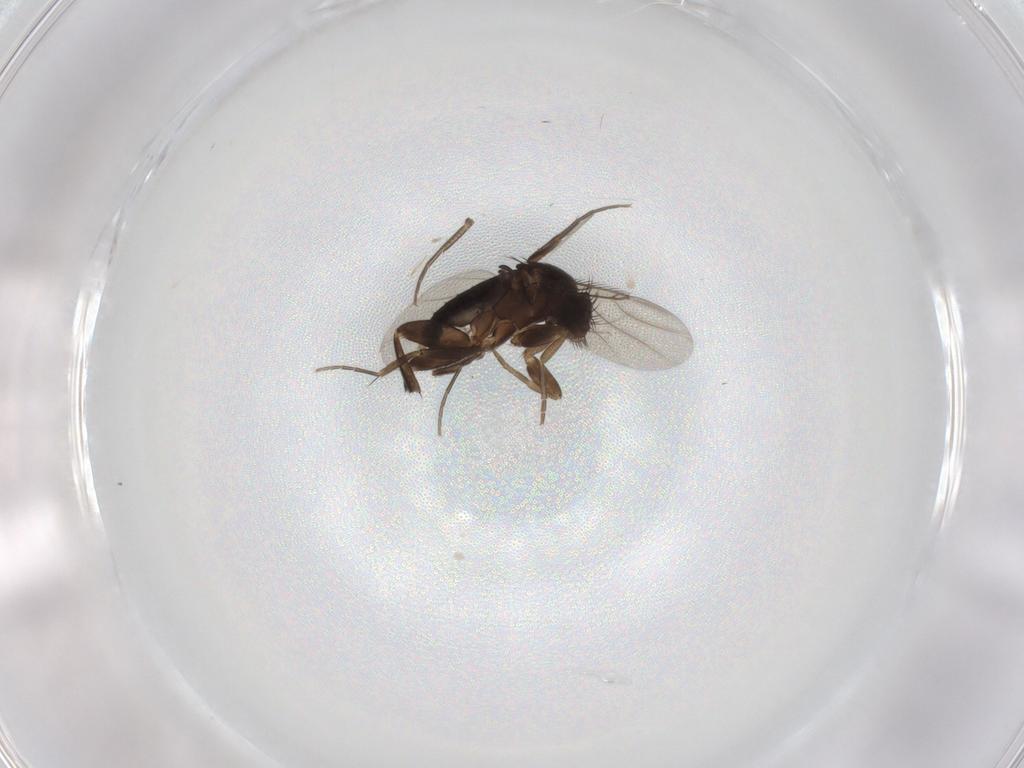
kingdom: Animalia
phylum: Arthropoda
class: Insecta
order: Diptera
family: Phoridae
